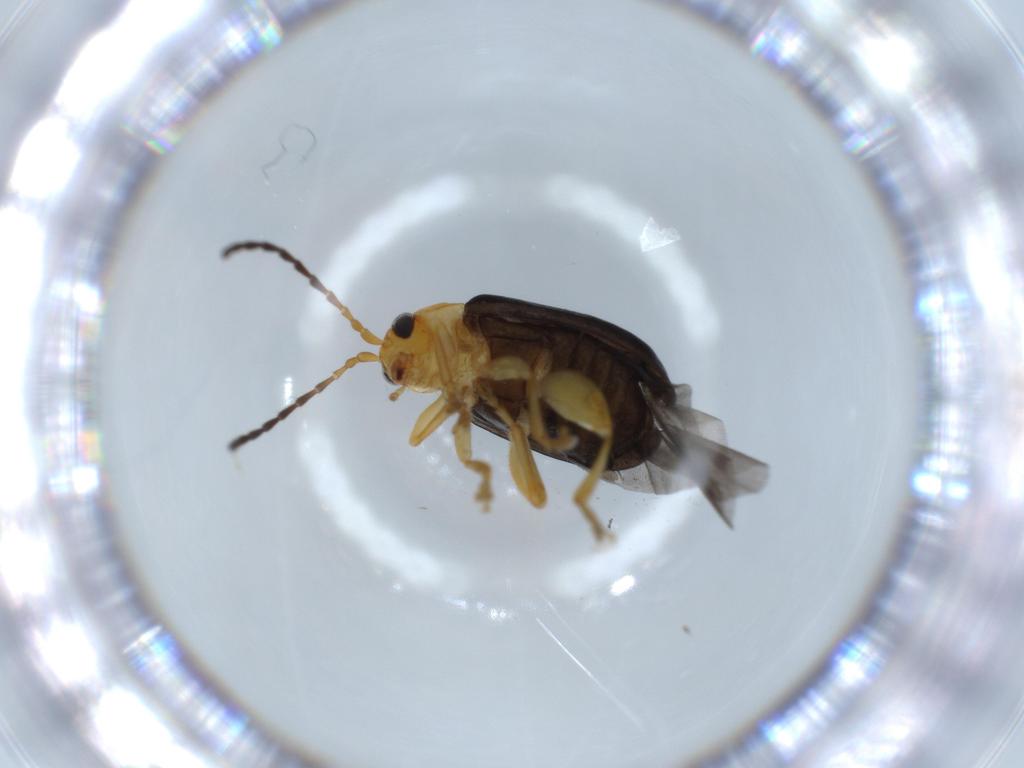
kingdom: Animalia
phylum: Arthropoda
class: Insecta
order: Coleoptera
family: Chrysomelidae
